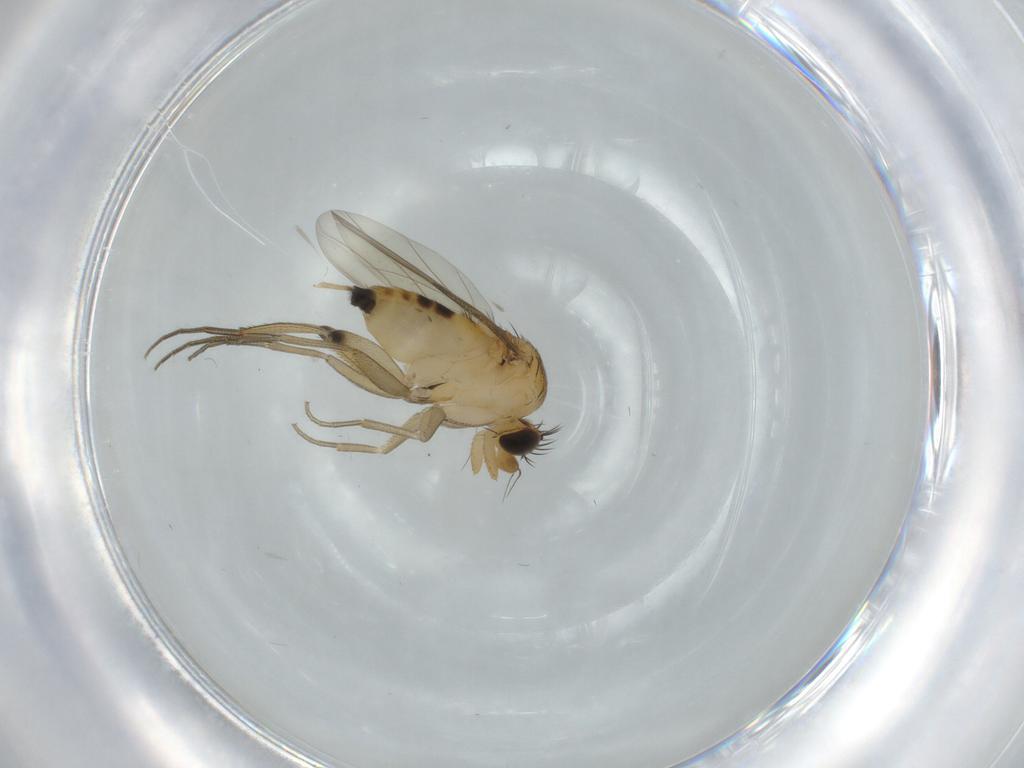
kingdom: Animalia
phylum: Arthropoda
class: Insecta
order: Diptera
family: Phoridae
